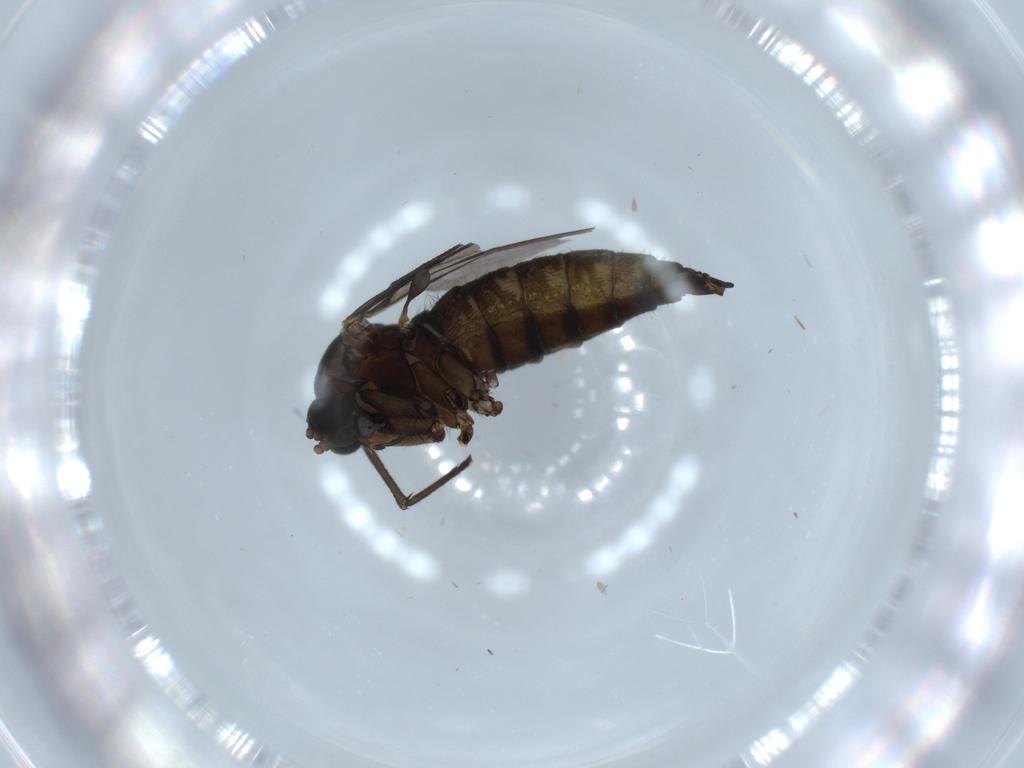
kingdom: Animalia
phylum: Arthropoda
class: Insecta
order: Diptera
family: Sciaridae
